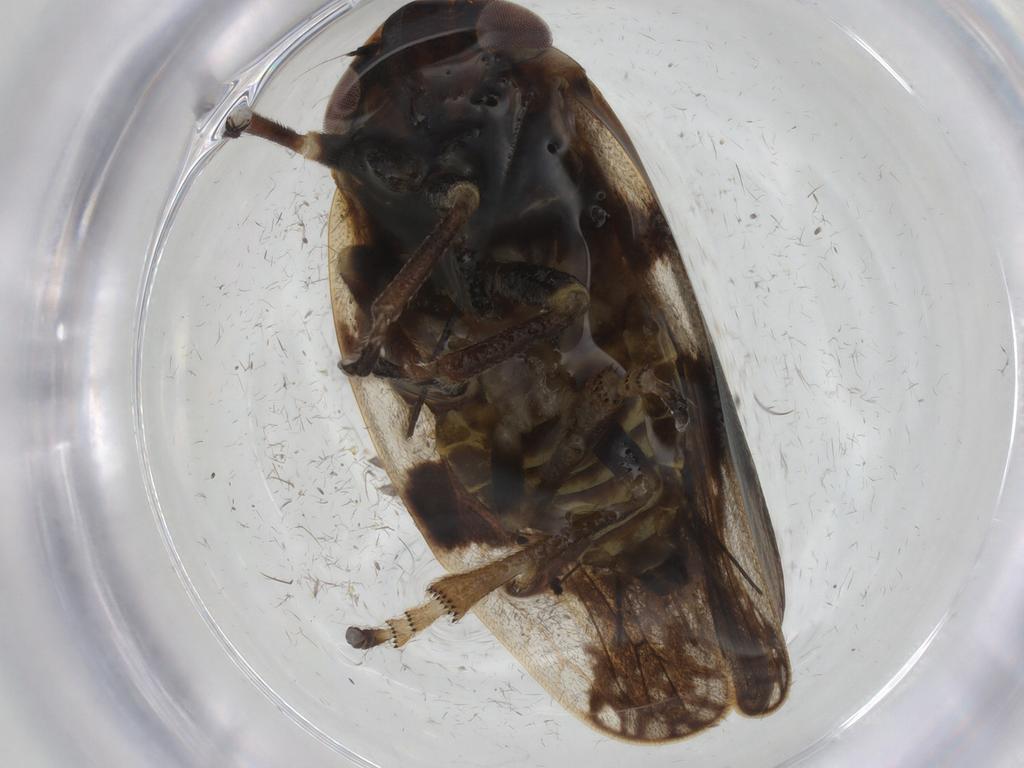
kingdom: Animalia
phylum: Arthropoda
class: Insecta
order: Hemiptera
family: Aphrophoridae
